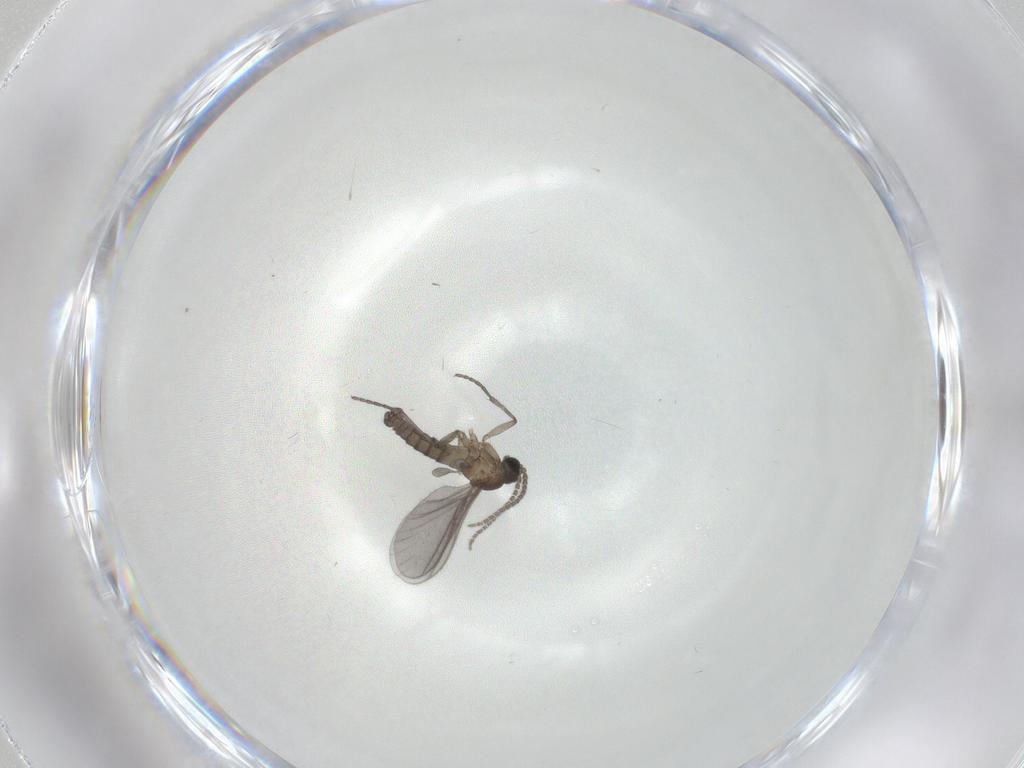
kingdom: Animalia
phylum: Arthropoda
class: Insecta
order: Diptera
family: Sciaridae
